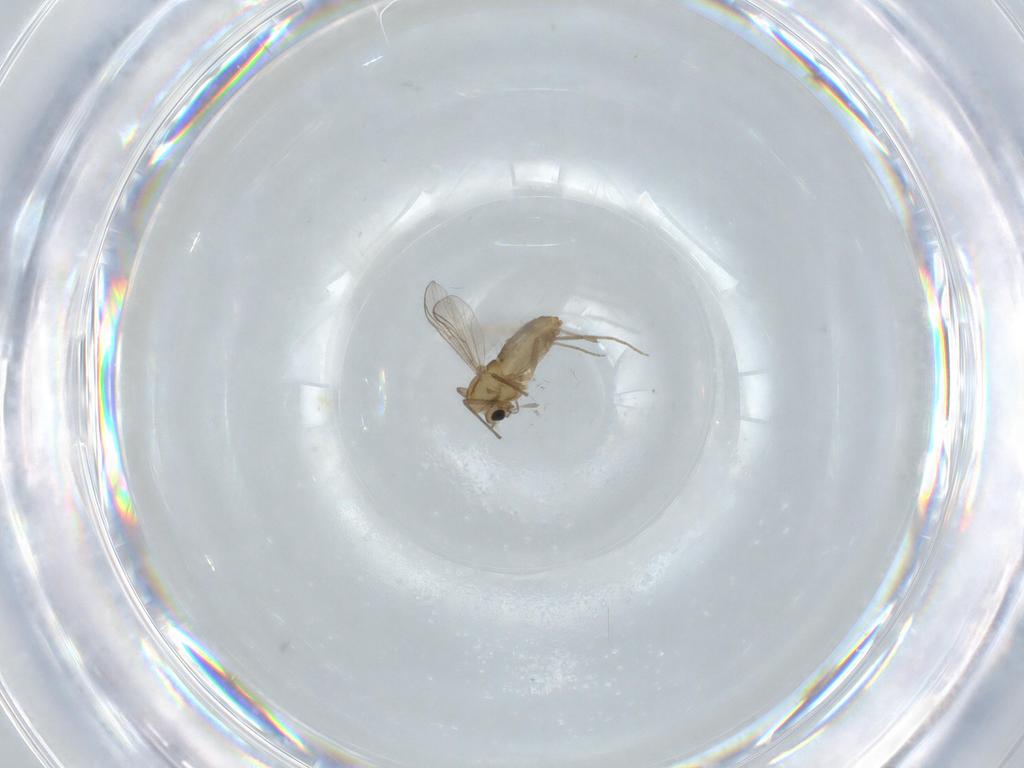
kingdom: Animalia
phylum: Arthropoda
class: Insecta
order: Diptera
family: Chironomidae
